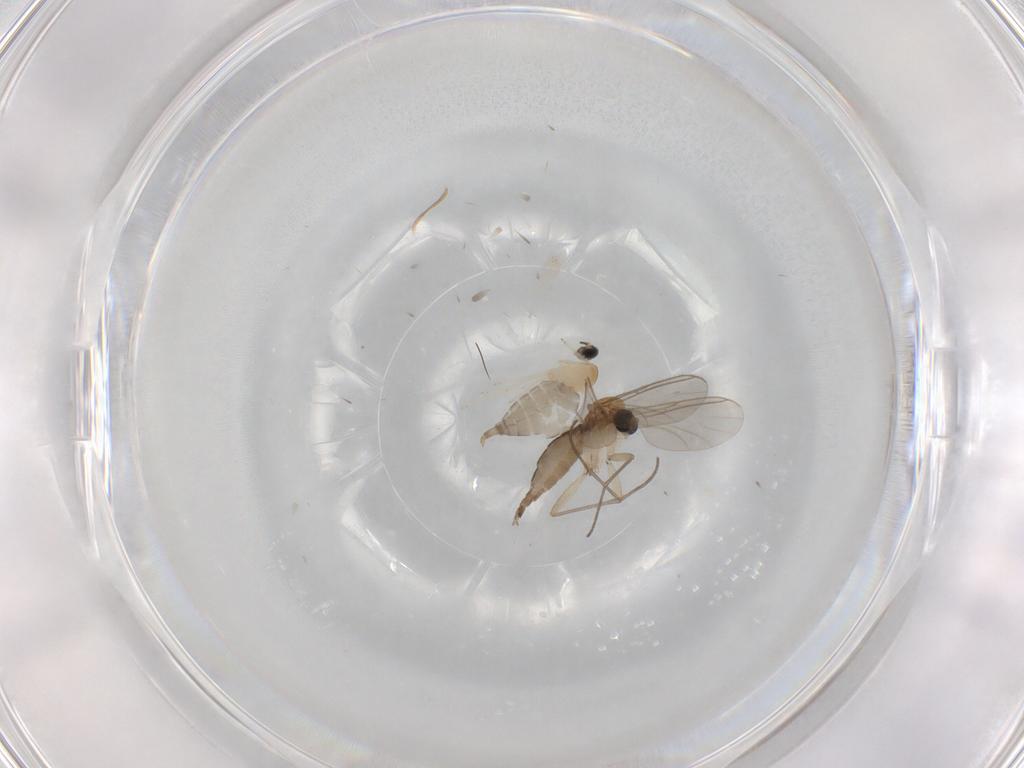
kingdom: Animalia
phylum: Arthropoda
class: Insecta
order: Diptera
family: Sciaridae
